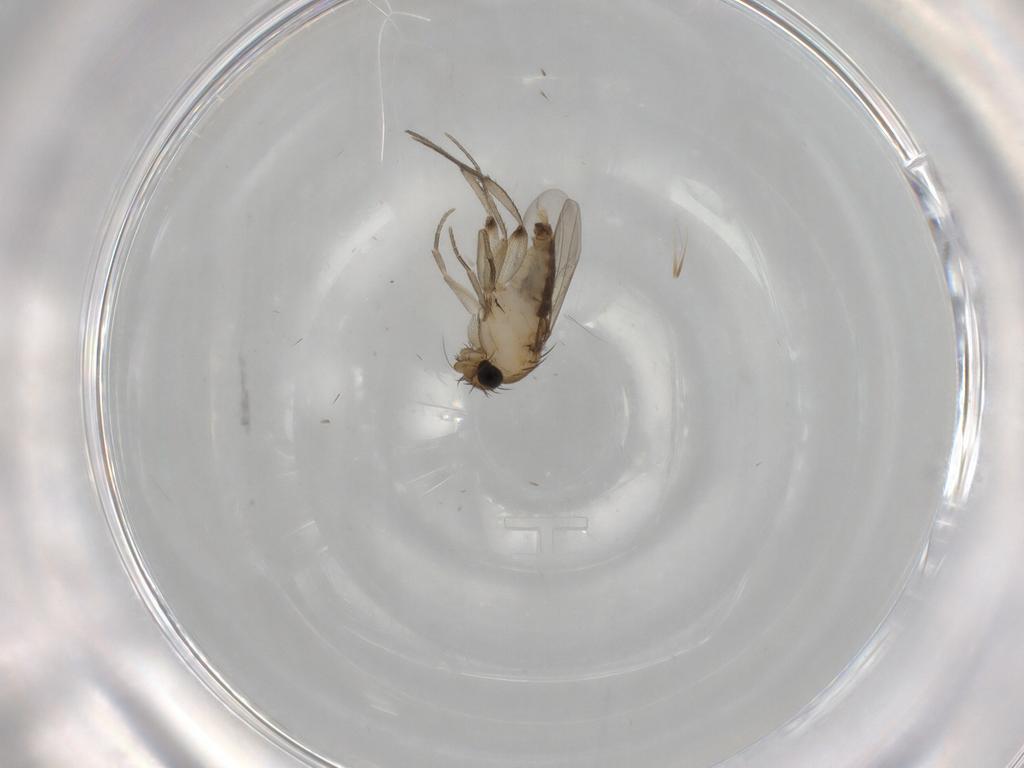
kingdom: Animalia
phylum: Arthropoda
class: Insecta
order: Diptera
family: Phoridae
